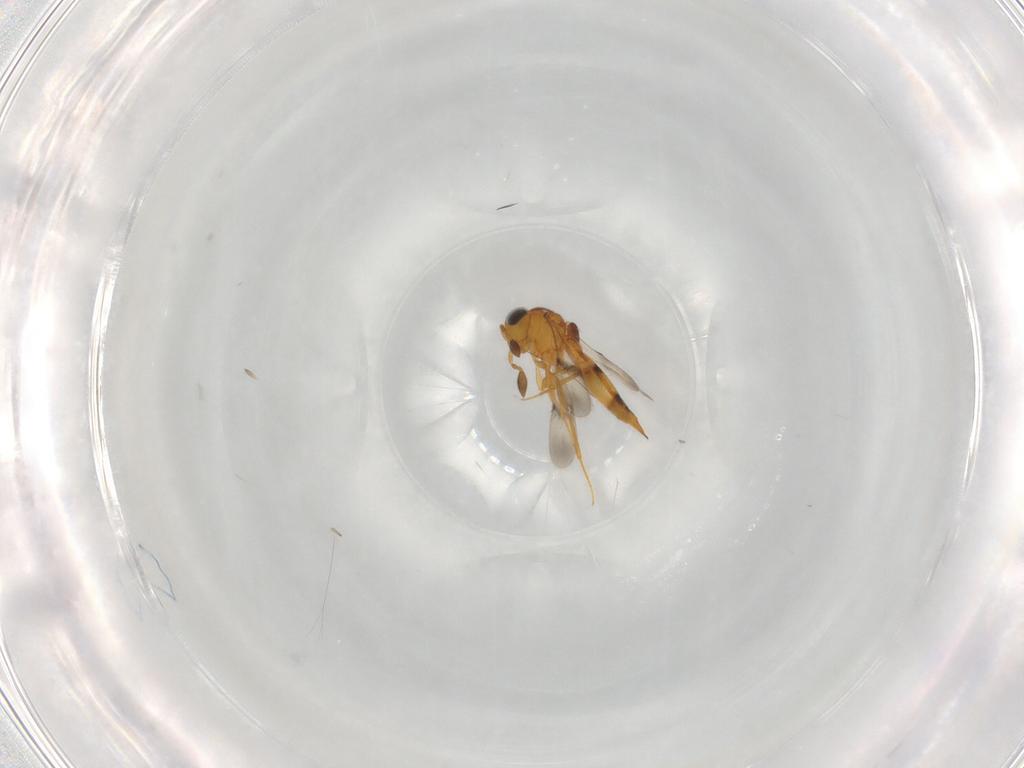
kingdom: Animalia
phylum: Arthropoda
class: Insecta
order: Hymenoptera
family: Scelionidae
